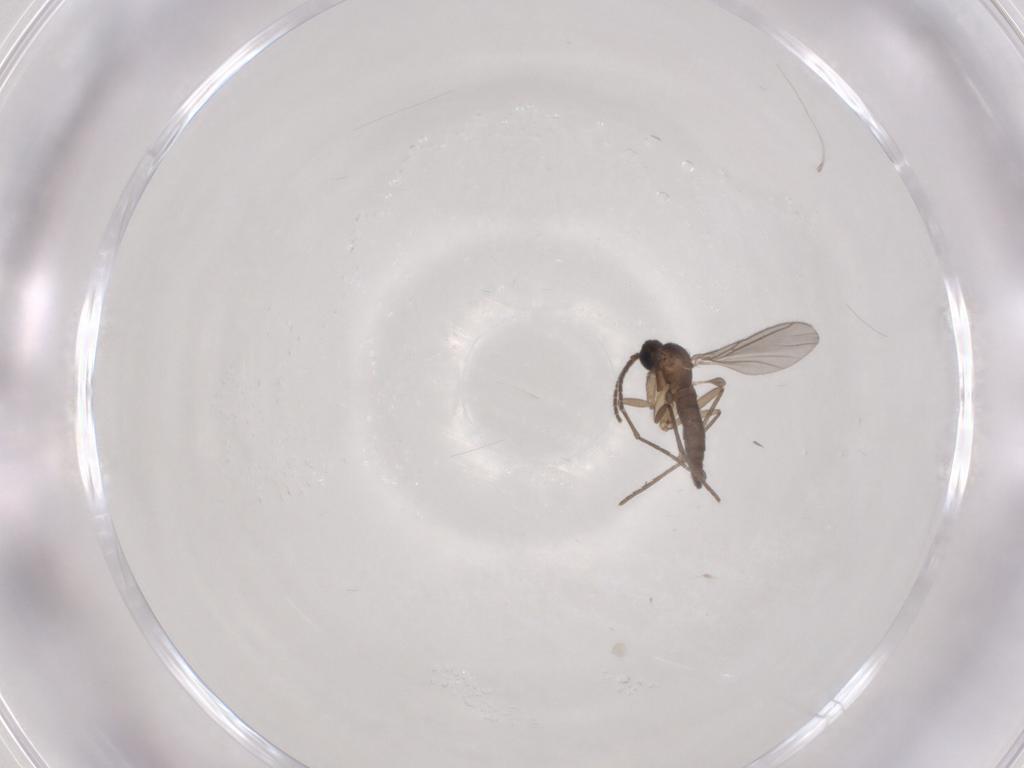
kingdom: Animalia
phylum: Arthropoda
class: Insecta
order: Diptera
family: Sciaridae
